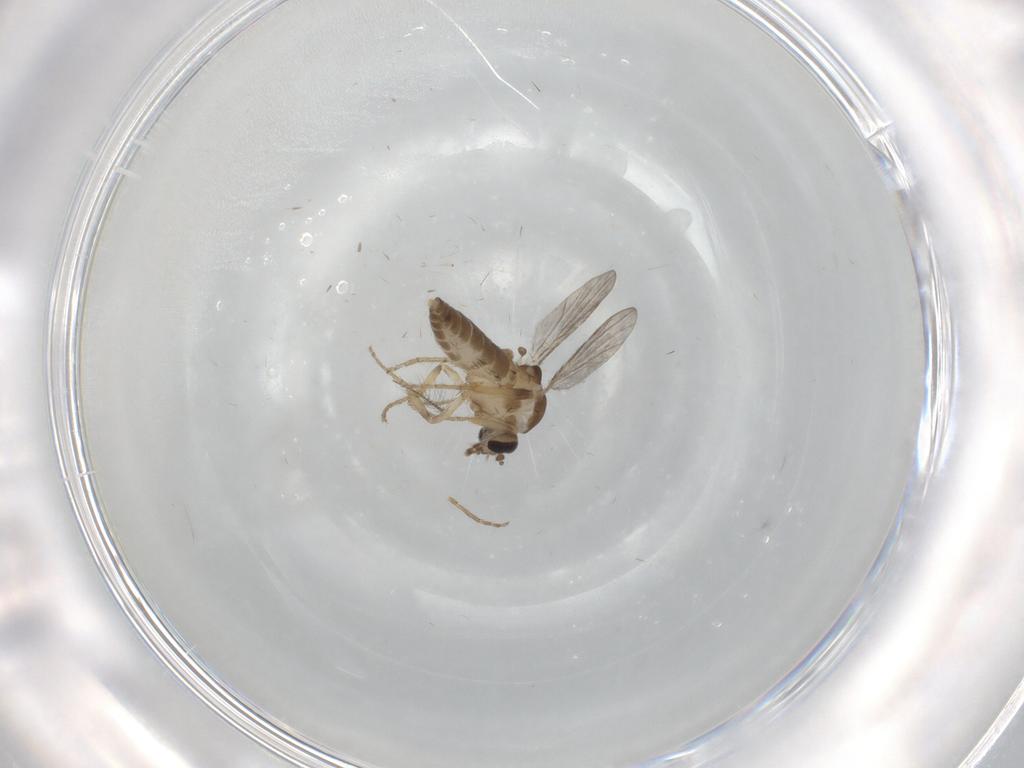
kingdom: Animalia
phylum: Arthropoda
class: Insecta
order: Diptera
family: Ceratopogonidae
